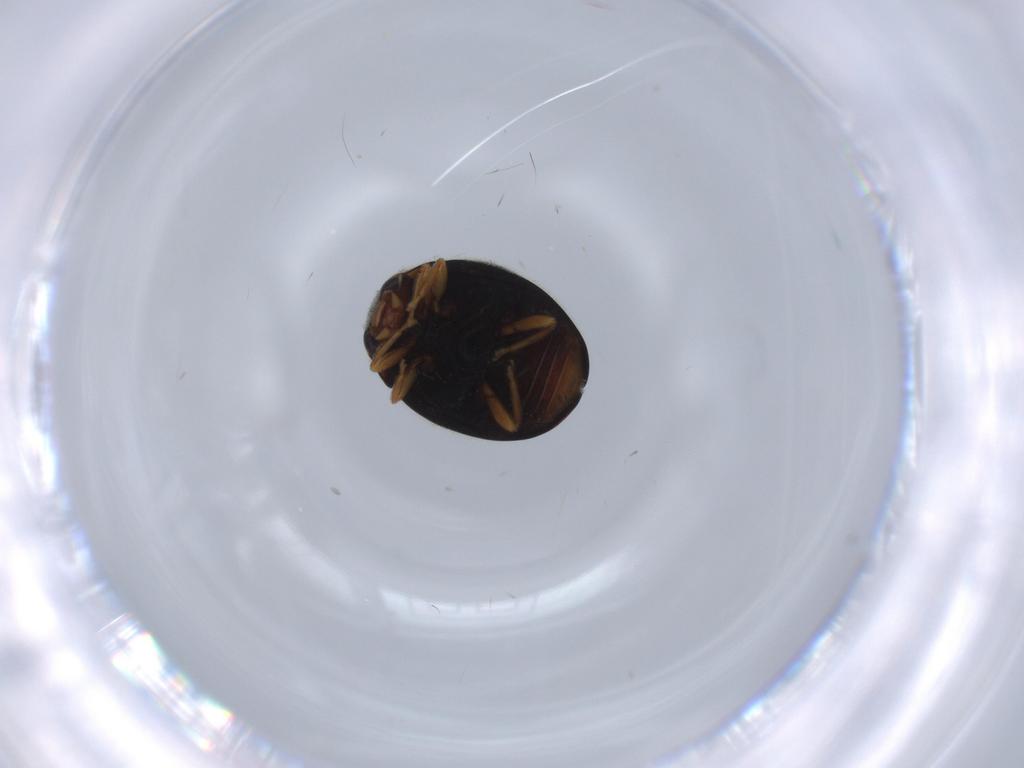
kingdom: Animalia
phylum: Arthropoda
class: Insecta
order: Coleoptera
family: Coccinellidae
